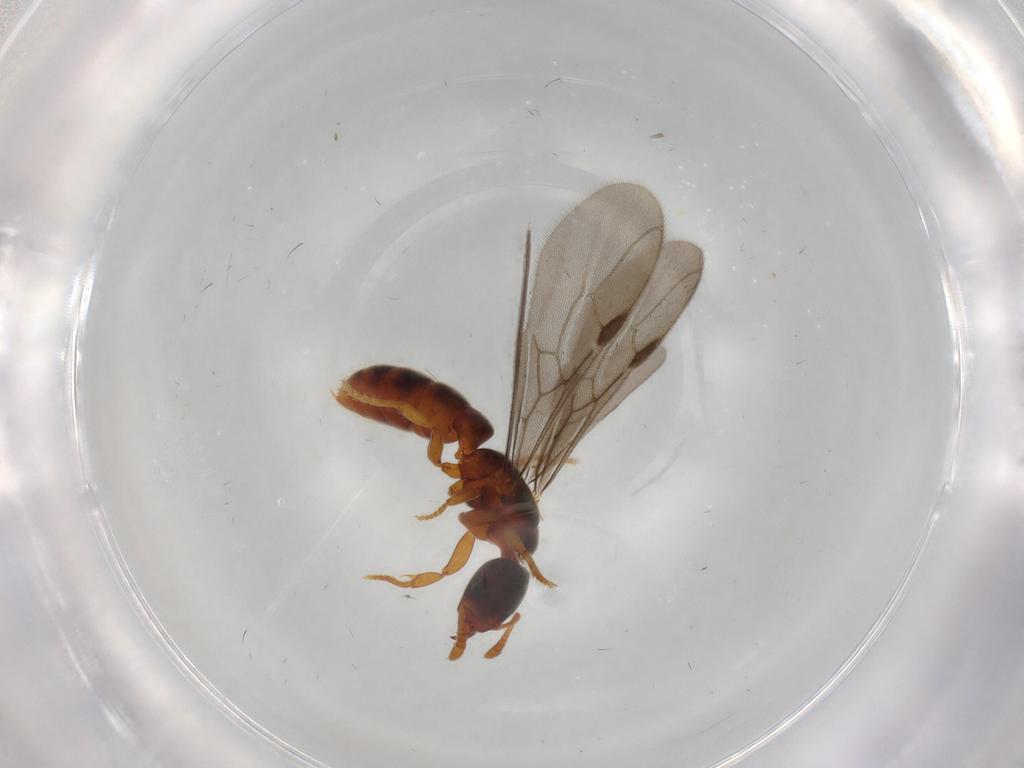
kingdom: Animalia
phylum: Arthropoda
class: Insecta
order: Hymenoptera
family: Formicidae
